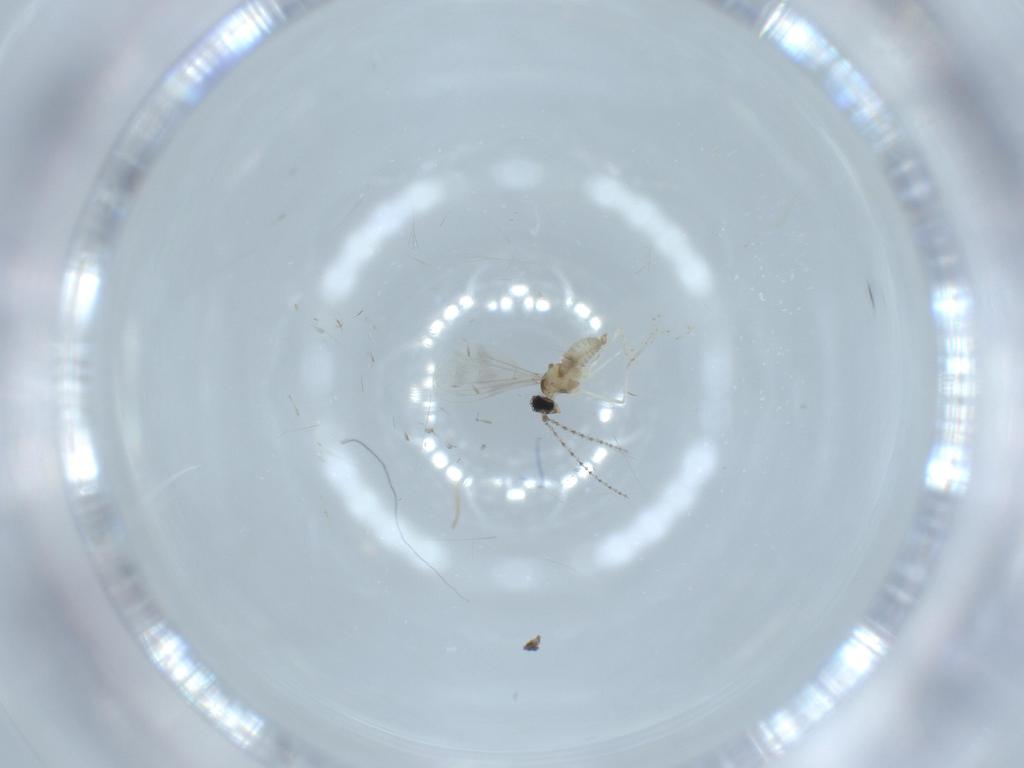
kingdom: Animalia
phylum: Arthropoda
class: Insecta
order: Diptera
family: Cecidomyiidae
